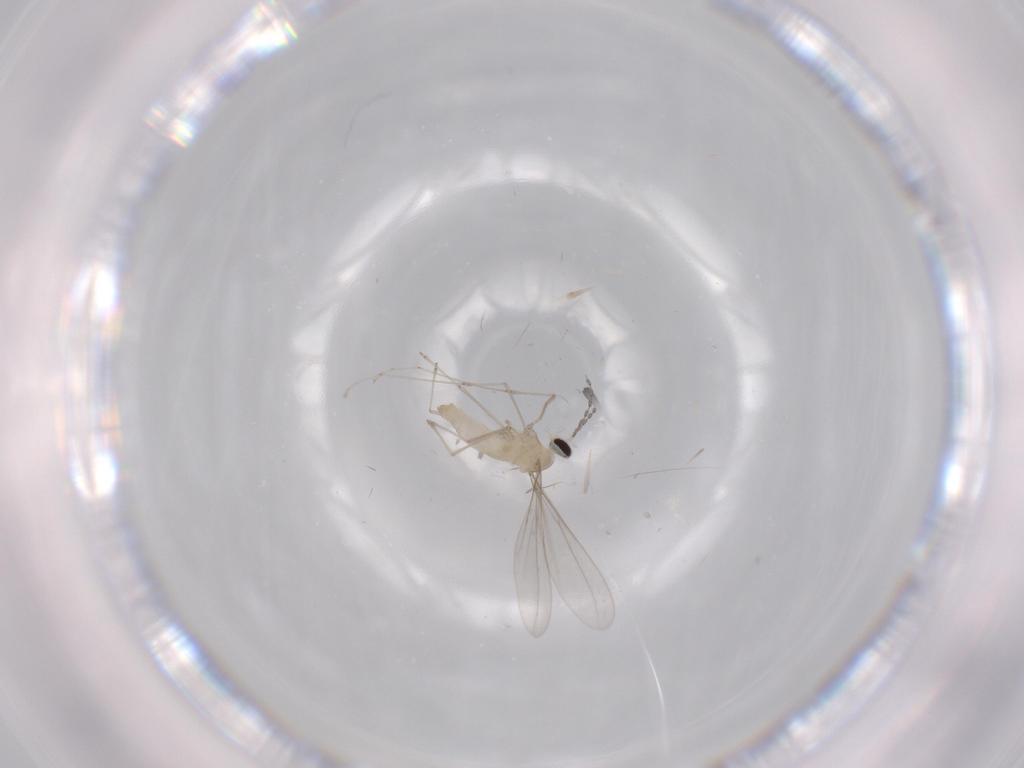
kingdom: Animalia
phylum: Arthropoda
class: Insecta
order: Diptera
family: Cecidomyiidae
